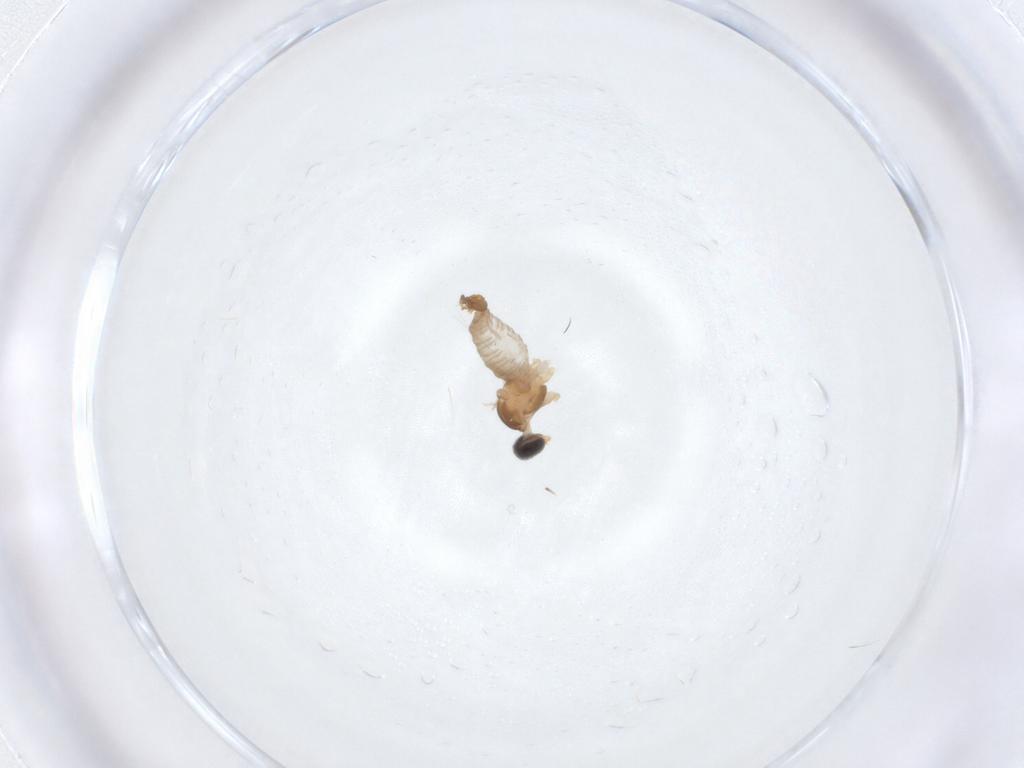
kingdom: Animalia
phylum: Arthropoda
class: Insecta
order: Diptera
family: Cecidomyiidae
